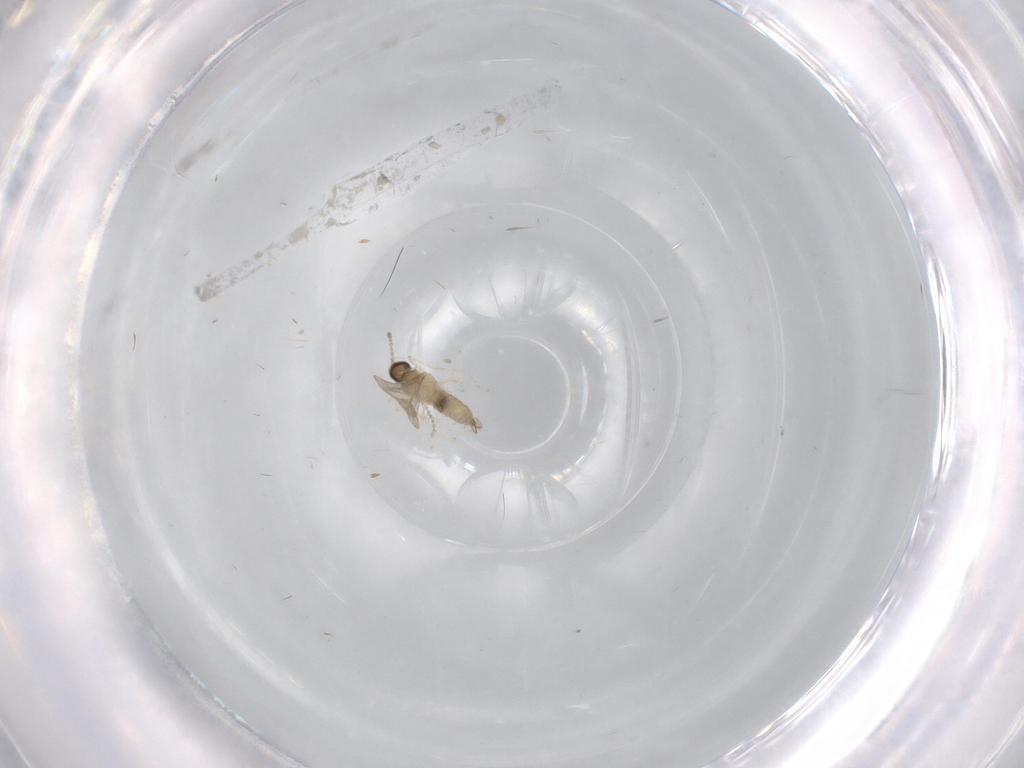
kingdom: Animalia
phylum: Arthropoda
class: Insecta
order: Diptera
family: Cecidomyiidae
